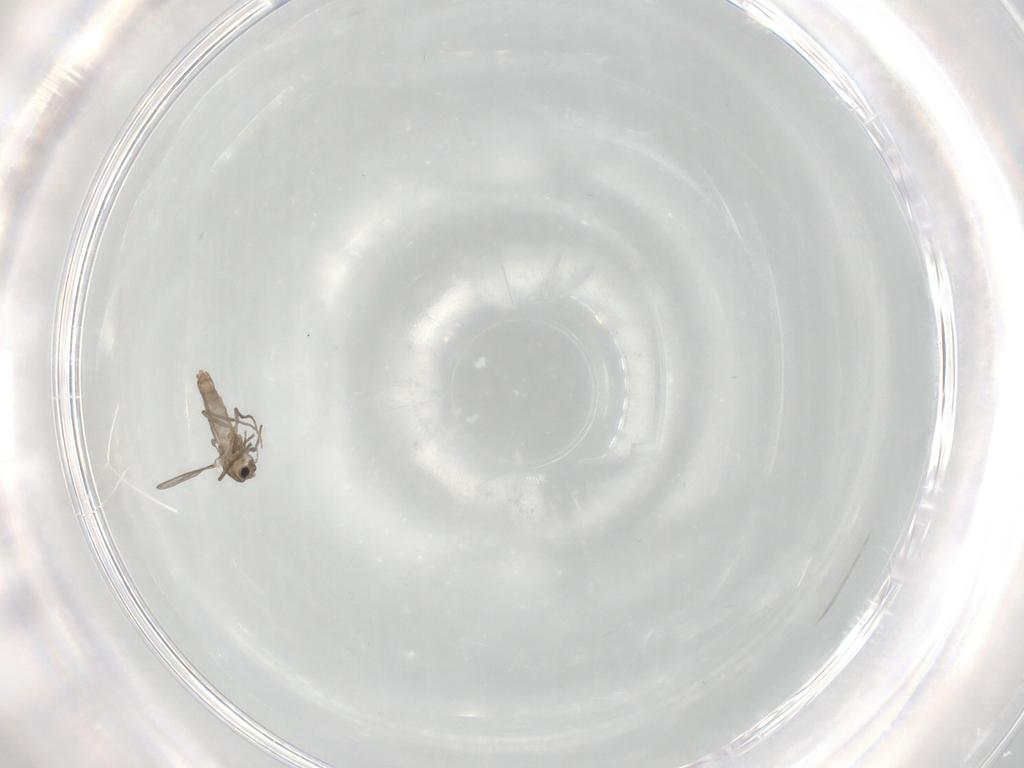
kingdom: Animalia
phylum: Arthropoda
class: Insecta
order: Diptera
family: Chironomidae
